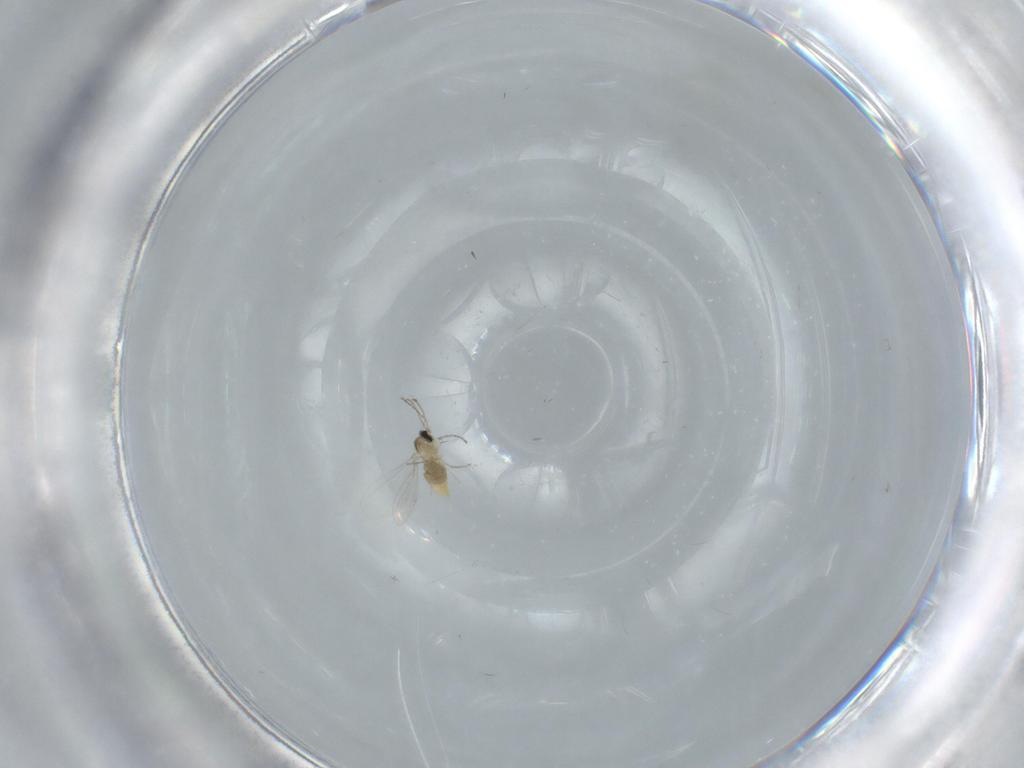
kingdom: Animalia
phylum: Arthropoda
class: Insecta
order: Diptera
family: Cecidomyiidae
